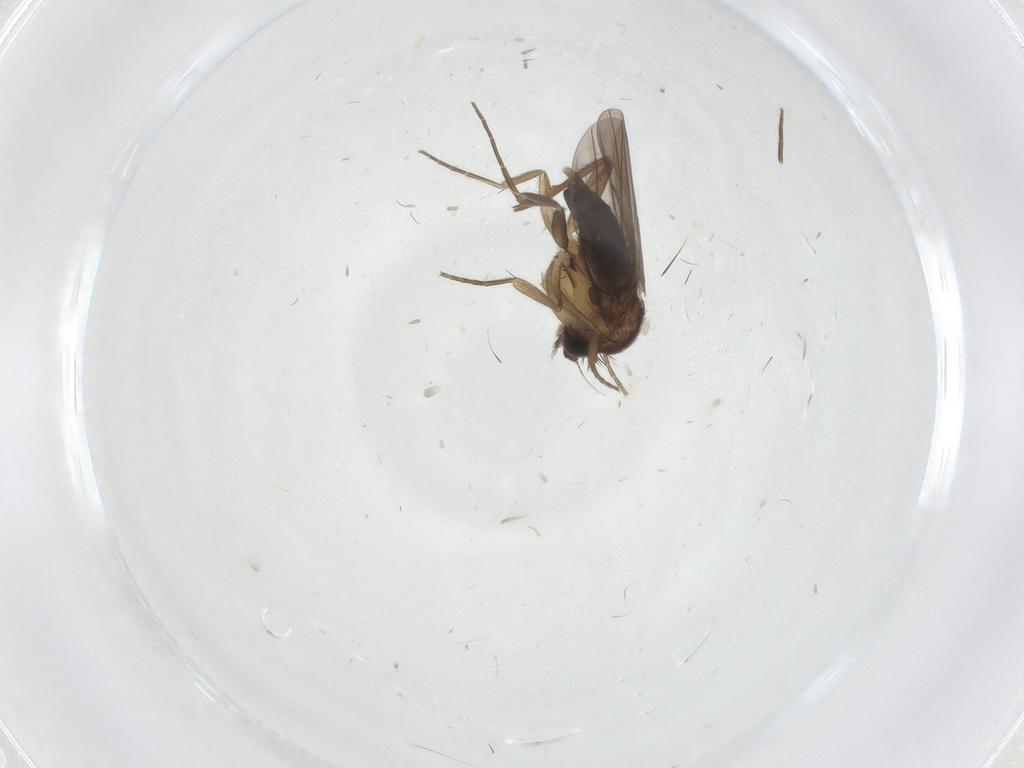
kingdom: Animalia
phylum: Arthropoda
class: Insecta
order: Diptera
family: Cecidomyiidae
